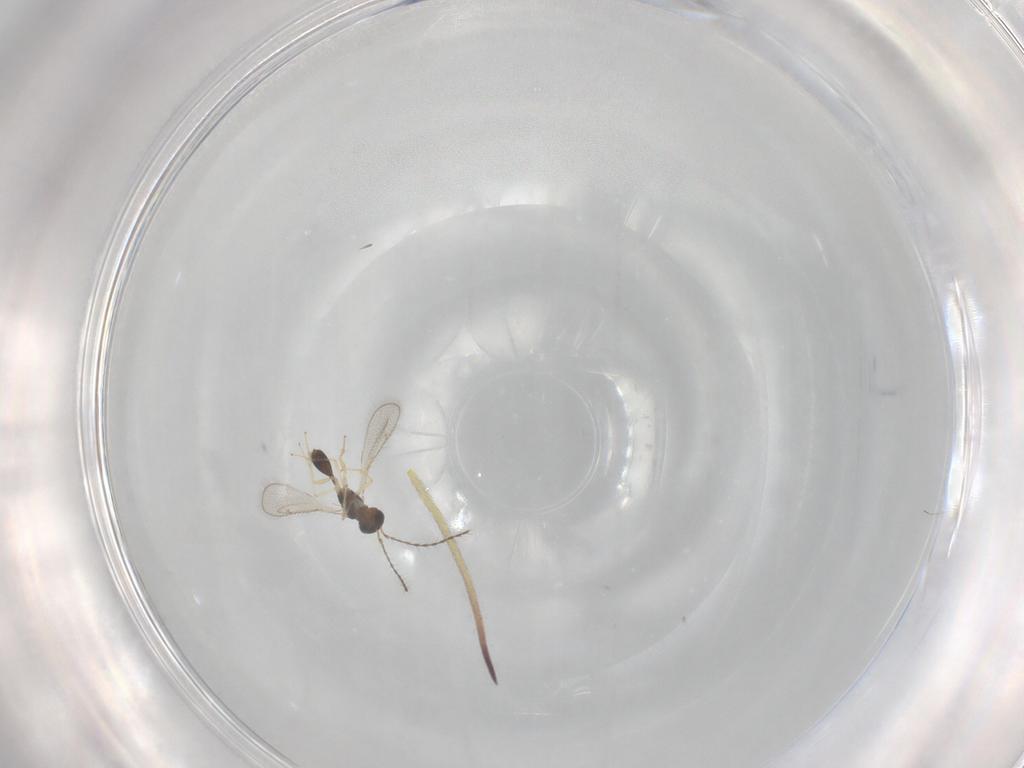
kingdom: Animalia
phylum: Arthropoda
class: Insecta
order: Hymenoptera
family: Diparidae
